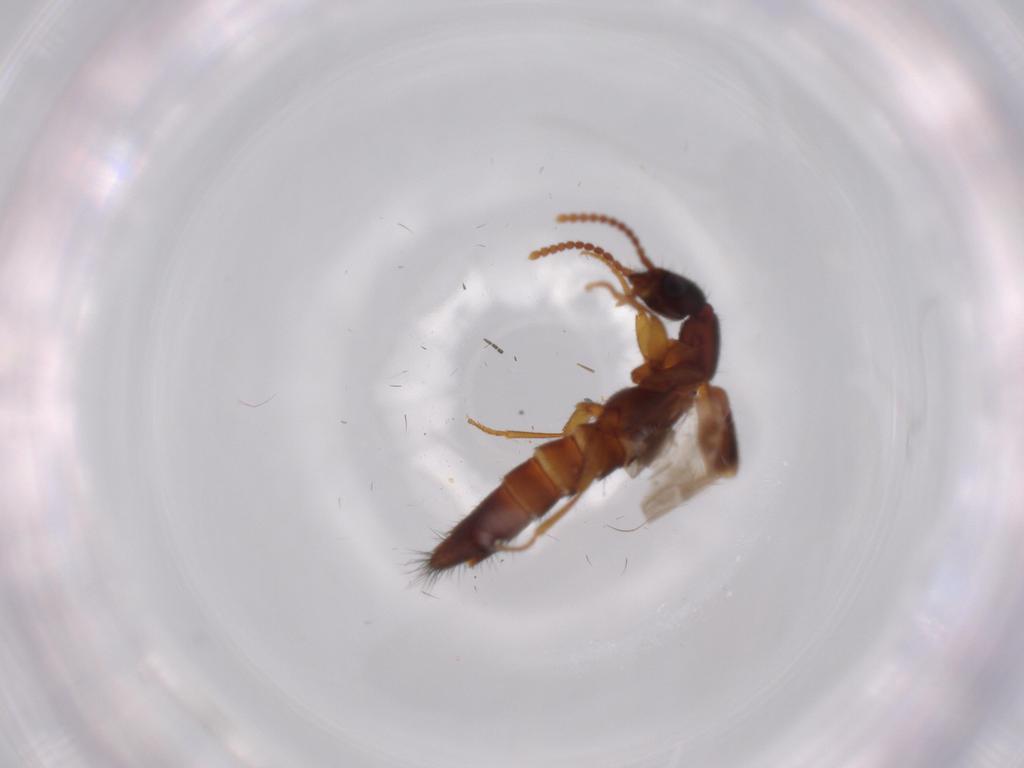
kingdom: Animalia
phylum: Arthropoda
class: Insecta
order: Coleoptera
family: Staphylinidae
